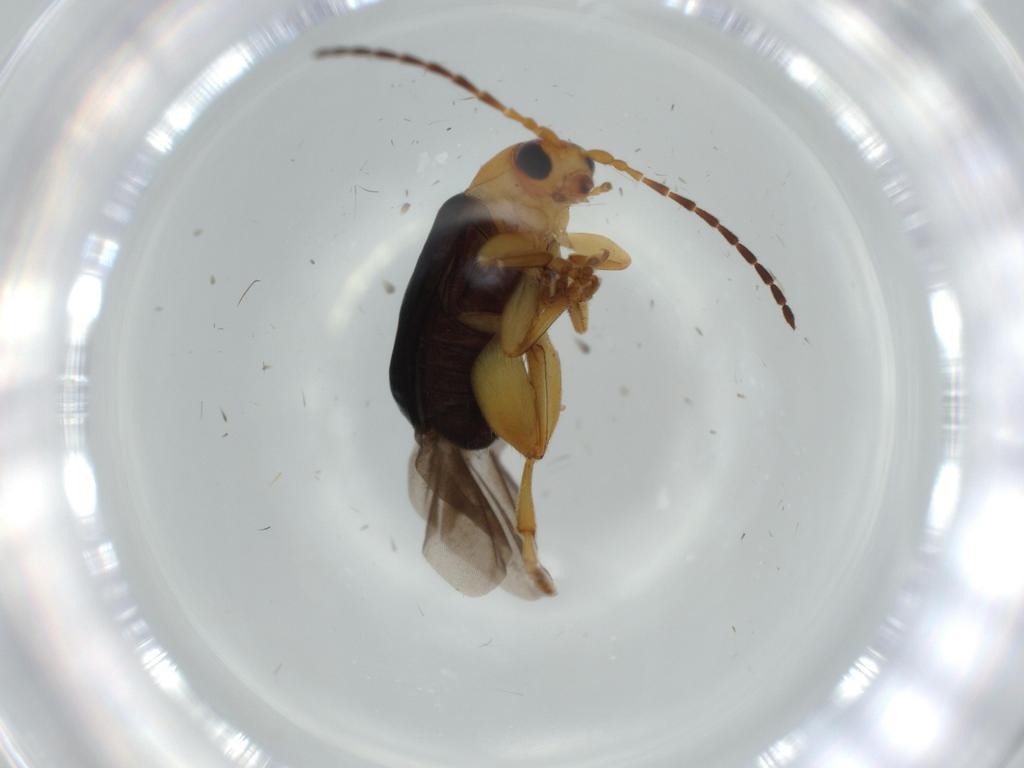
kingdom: Animalia
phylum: Arthropoda
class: Insecta
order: Coleoptera
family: Chrysomelidae
